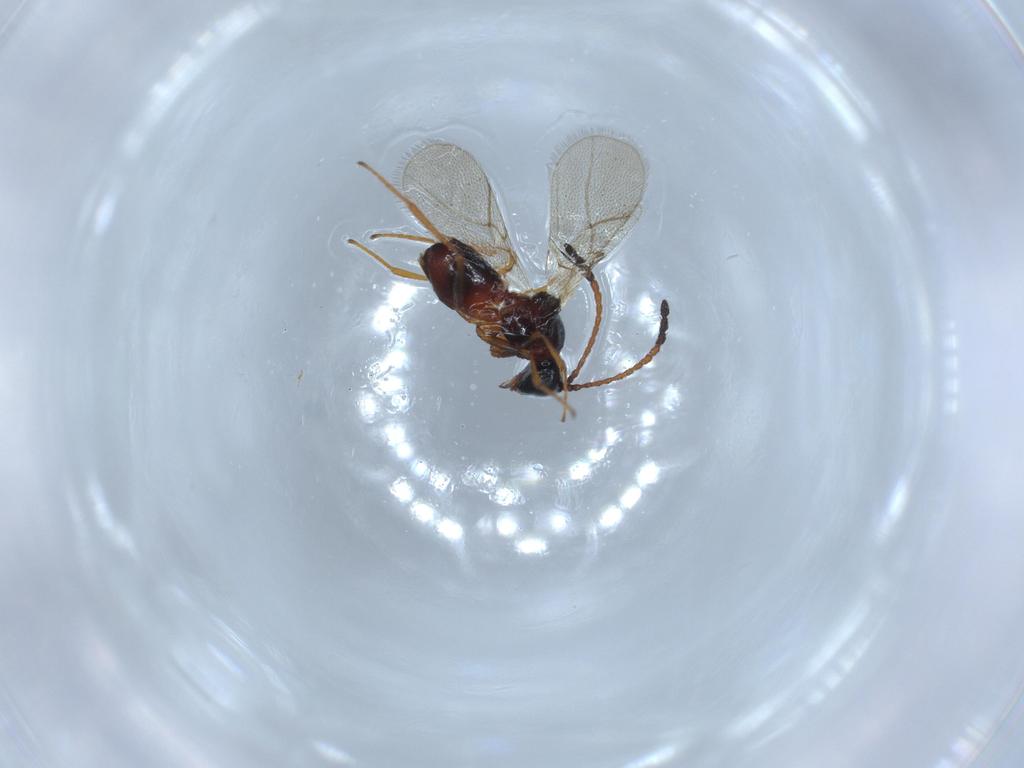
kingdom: Animalia
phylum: Arthropoda
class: Insecta
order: Hymenoptera
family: Figitidae
